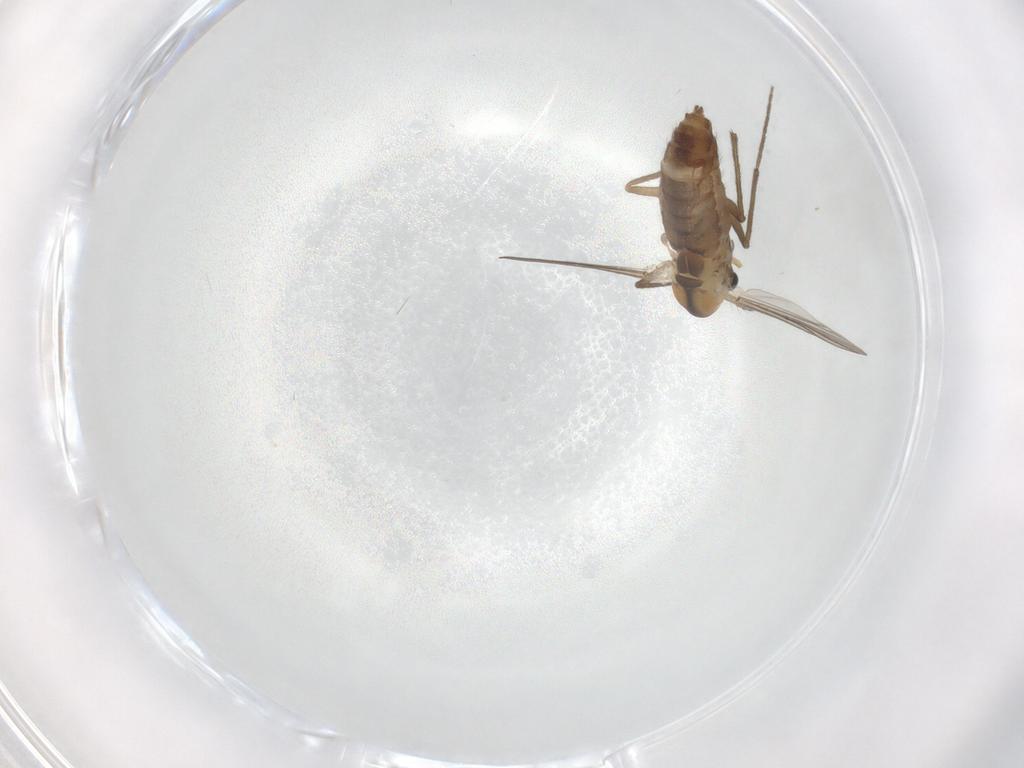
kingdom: Animalia
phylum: Arthropoda
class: Insecta
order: Diptera
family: Chironomidae
